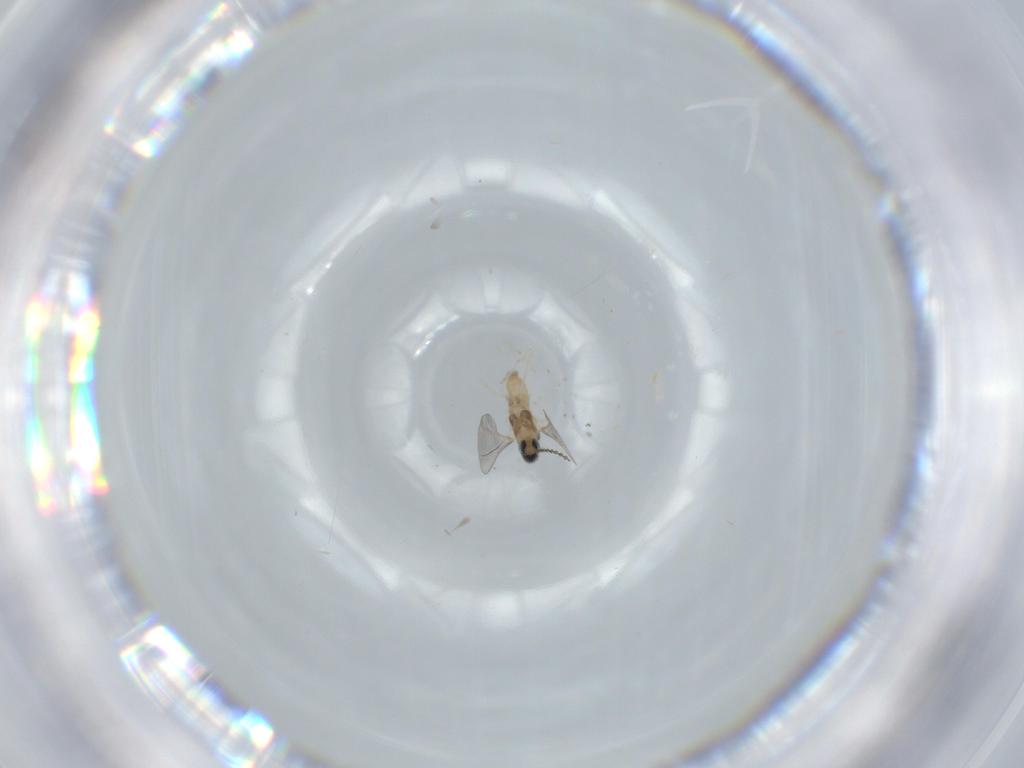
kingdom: Animalia
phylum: Arthropoda
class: Insecta
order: Diptera
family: Cecidomyiidae
